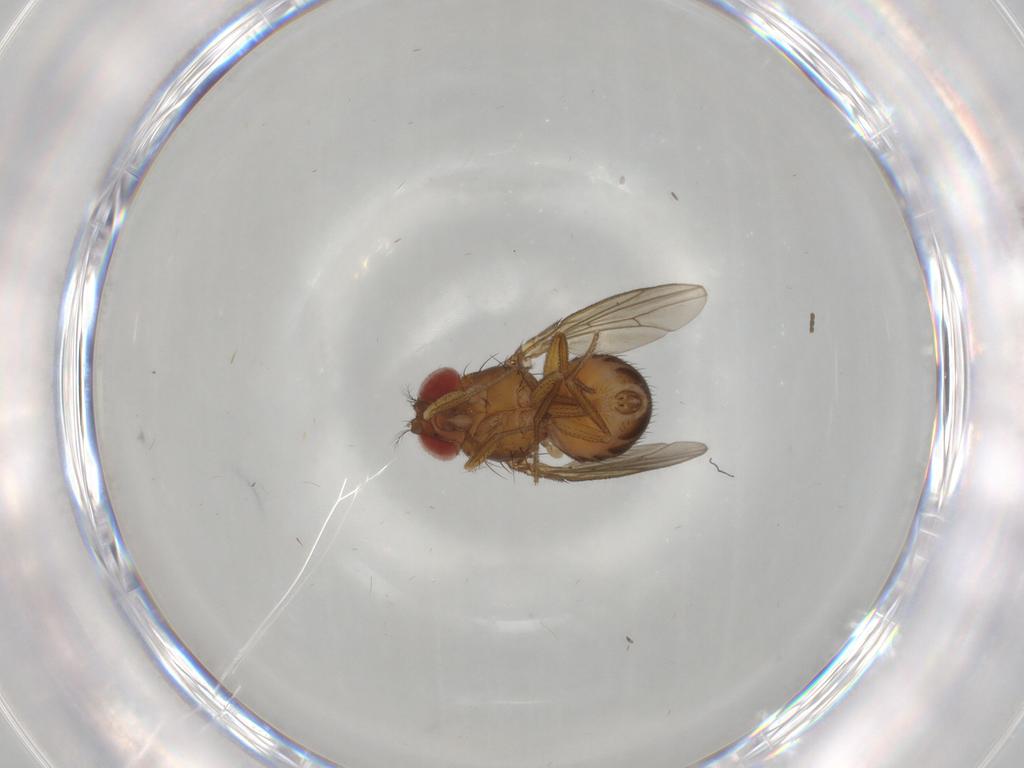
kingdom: Animalia
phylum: Arthropoda
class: Insecta
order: Diptera
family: Drosophilidae
